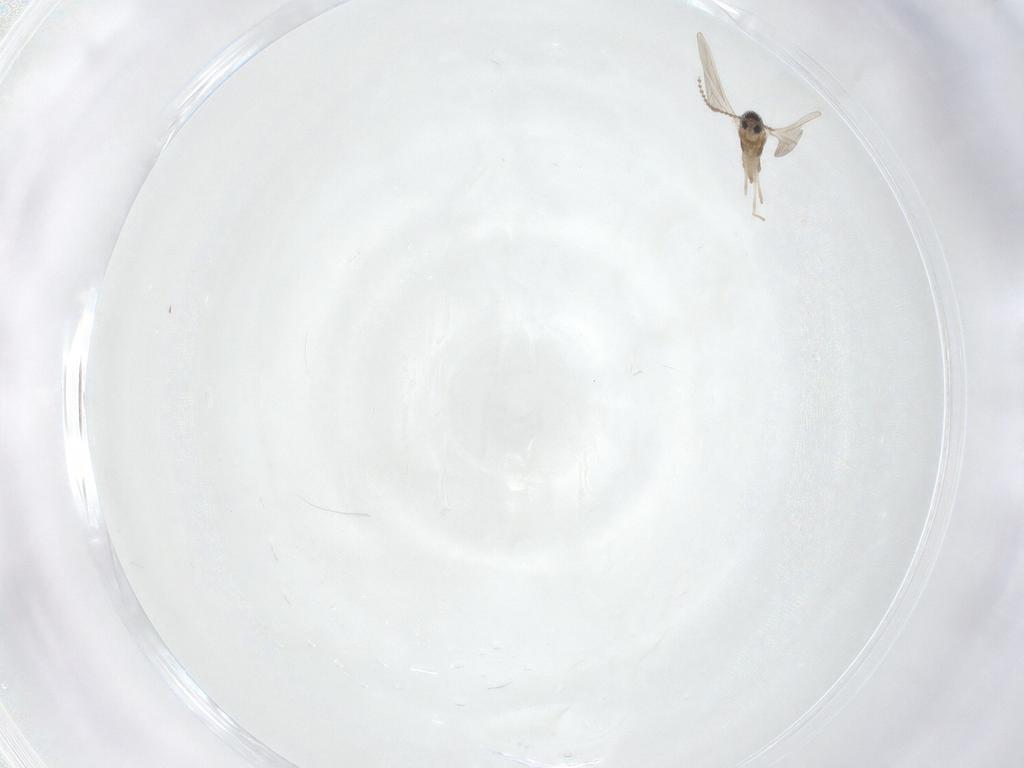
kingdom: Animalia
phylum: Arthropoda
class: Insecta
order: Diptera
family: Cecidomyiidae
